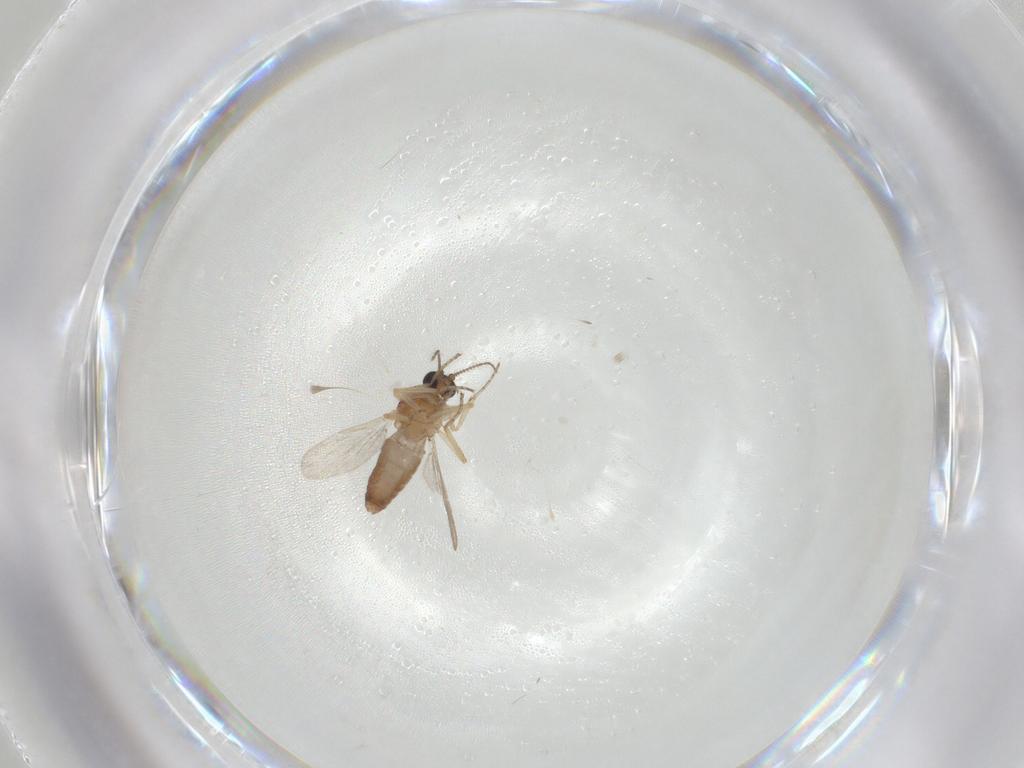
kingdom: Animalia
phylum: Arthropoda
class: Insecta
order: Diptera
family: Ceratopogonidae
